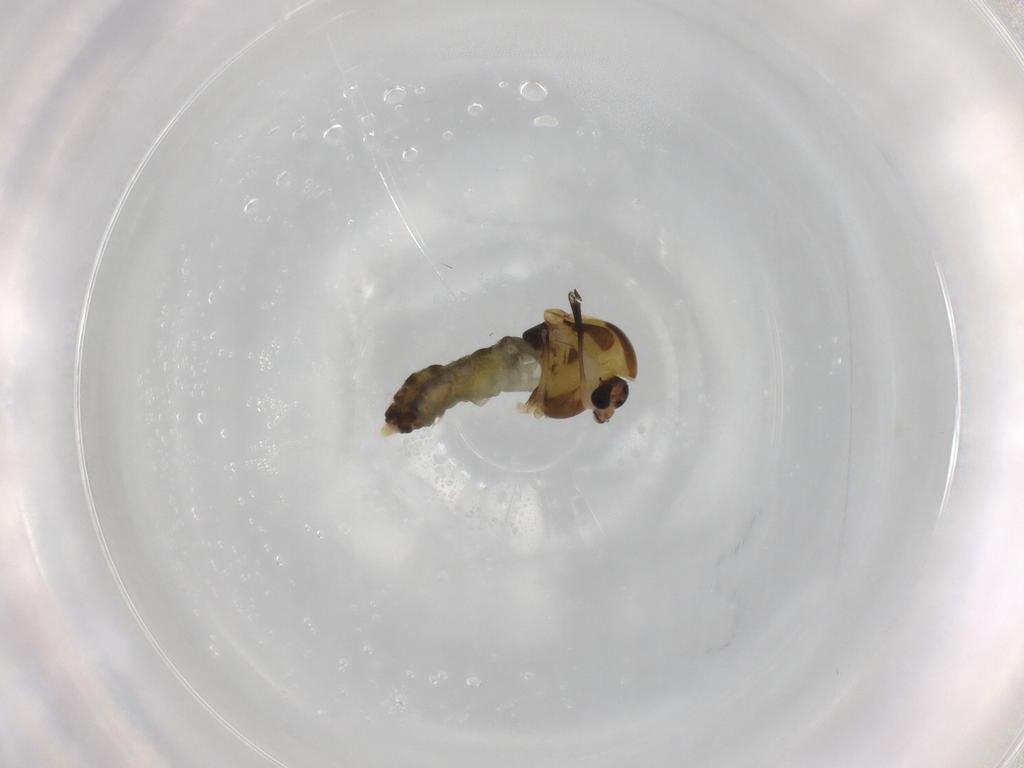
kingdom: Animalia
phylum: Arthropoda
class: Insecta
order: Diptera
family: Chironomidae
